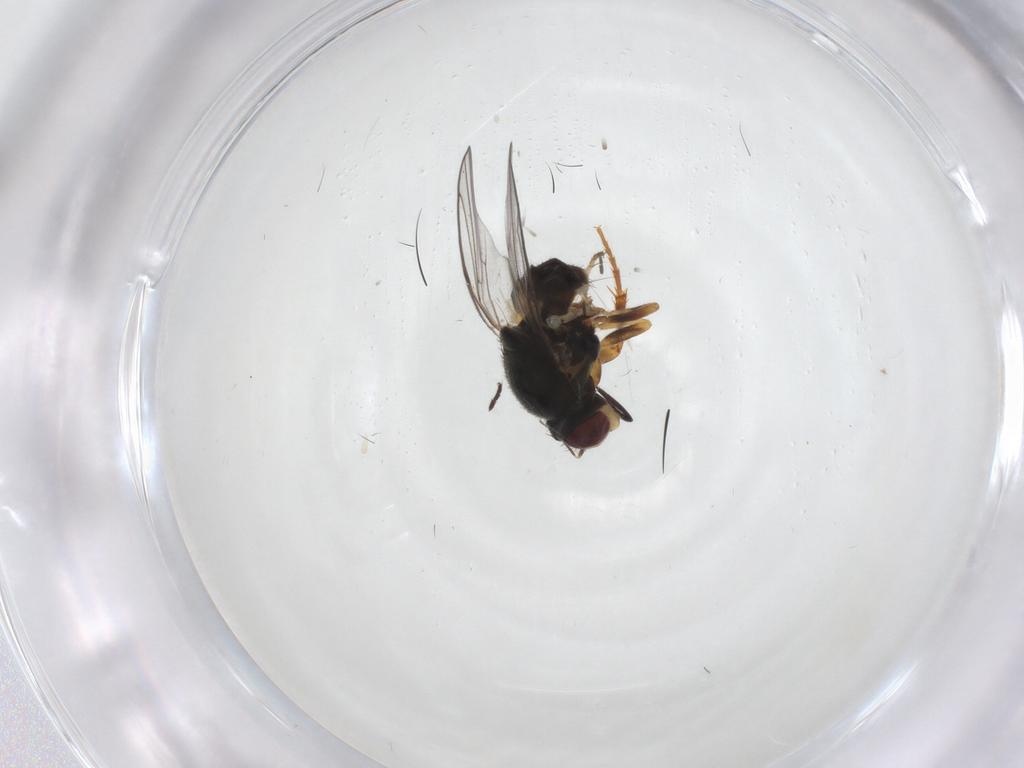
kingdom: Animalia
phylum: Arthropoda
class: Insecta
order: Diptera
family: Chloropidae
